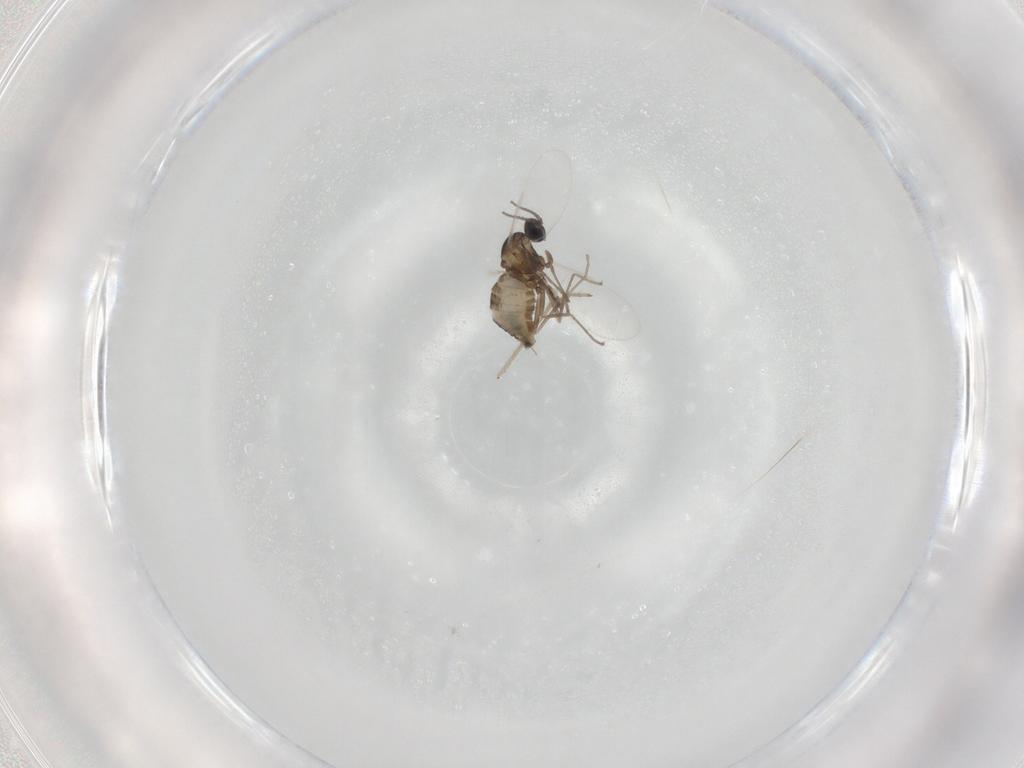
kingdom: Animalia
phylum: Arthropoda
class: Insecta
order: Diptera
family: Cecidomyiidae
